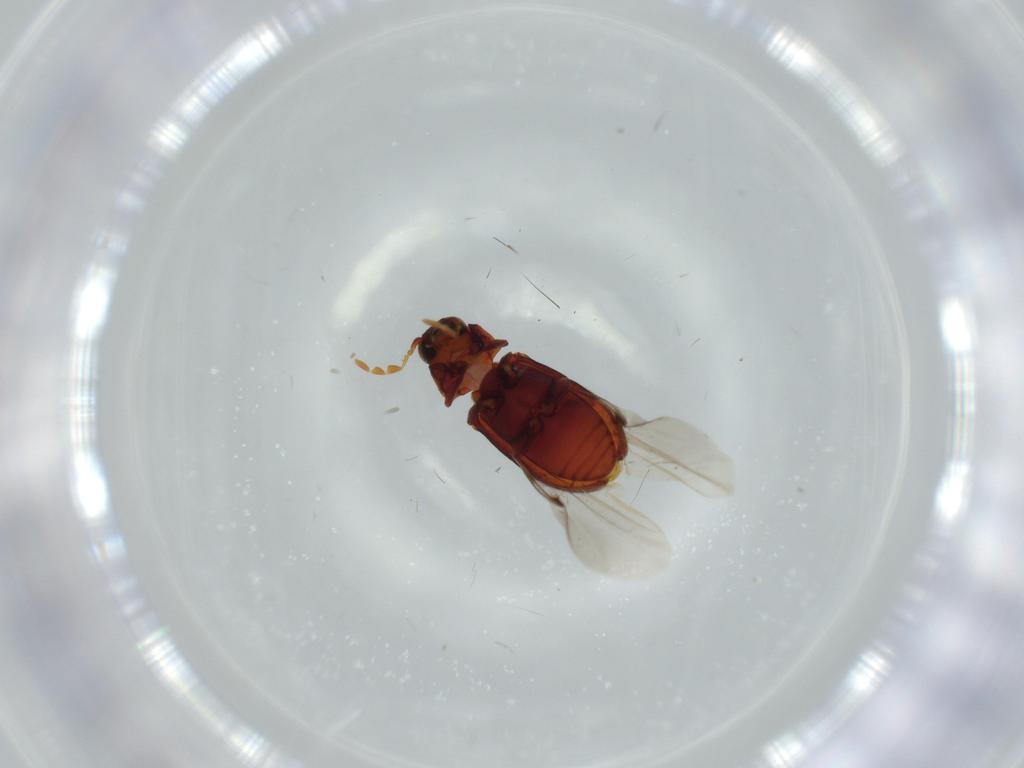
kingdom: Animalia
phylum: Arthropoda
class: Insecta
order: Coleoptera
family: Anobiidae
